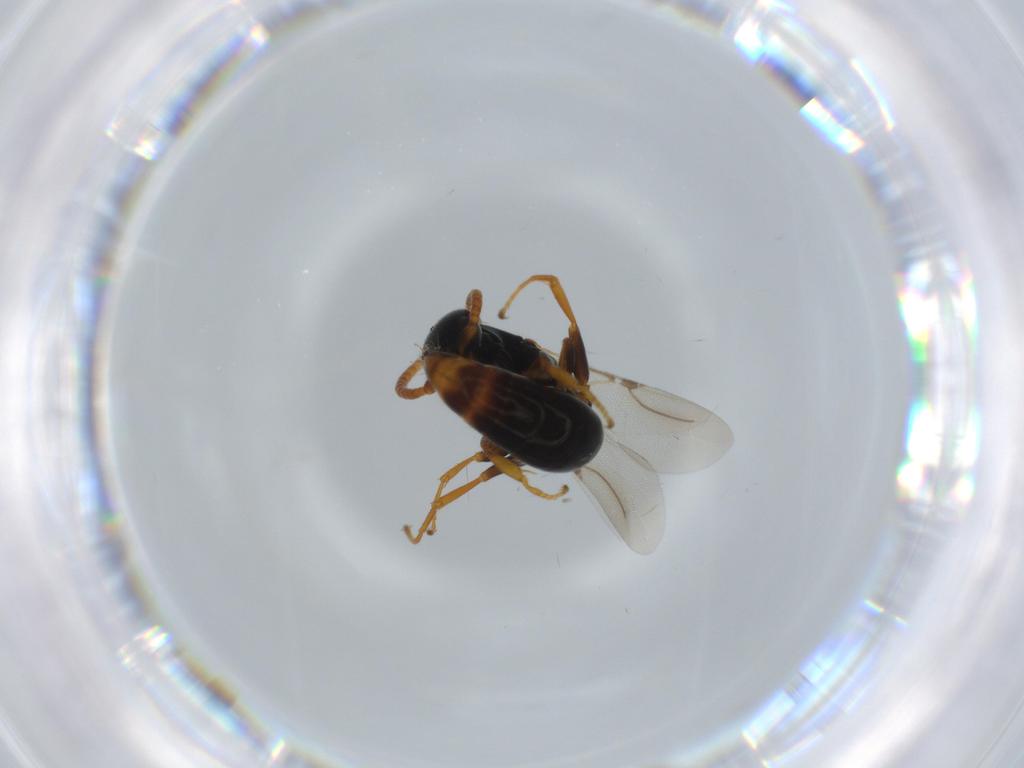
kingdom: Animalia
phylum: Arthropoda
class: Insecta
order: Hymenoptera
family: Bethylidae
